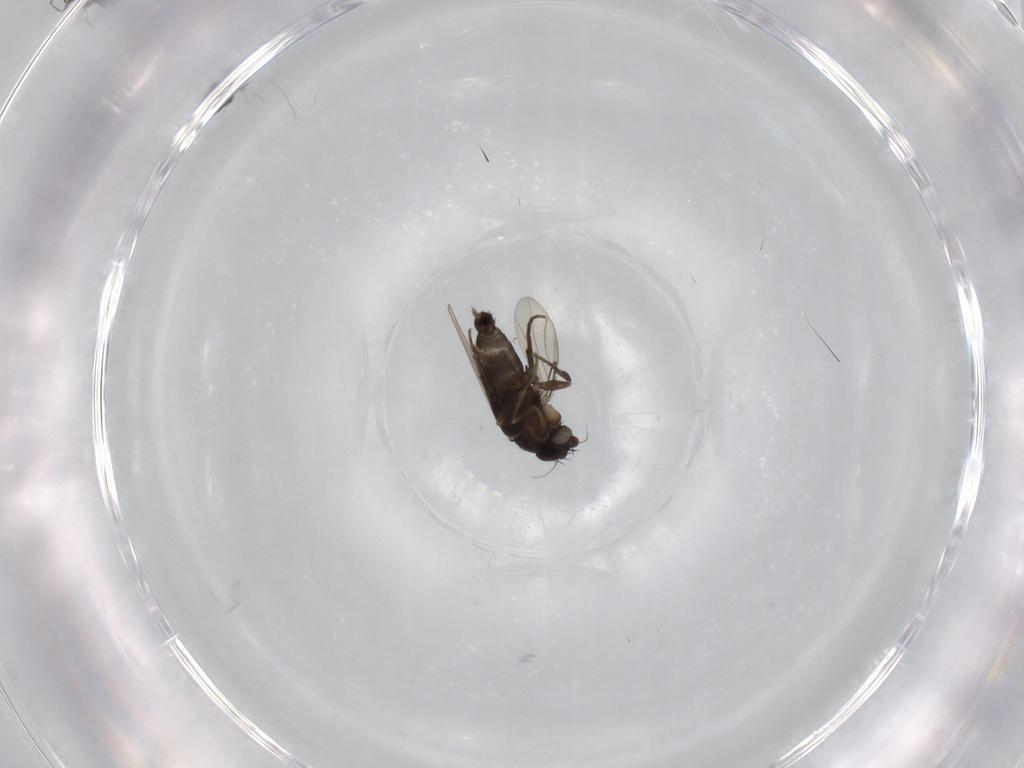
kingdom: Animalia
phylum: Arthropoda
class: Insecta
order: Diptera
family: Phoridae
